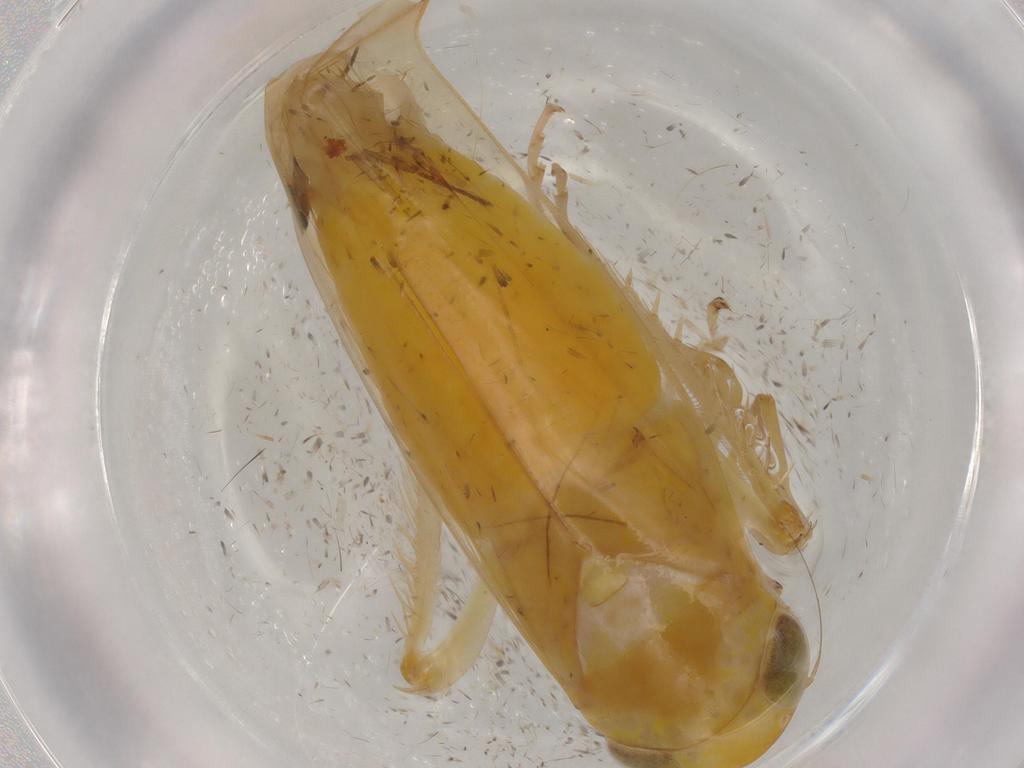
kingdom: Animalia
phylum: Arthropoda
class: Insecta
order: Hemiptera
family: Cicadellidae
